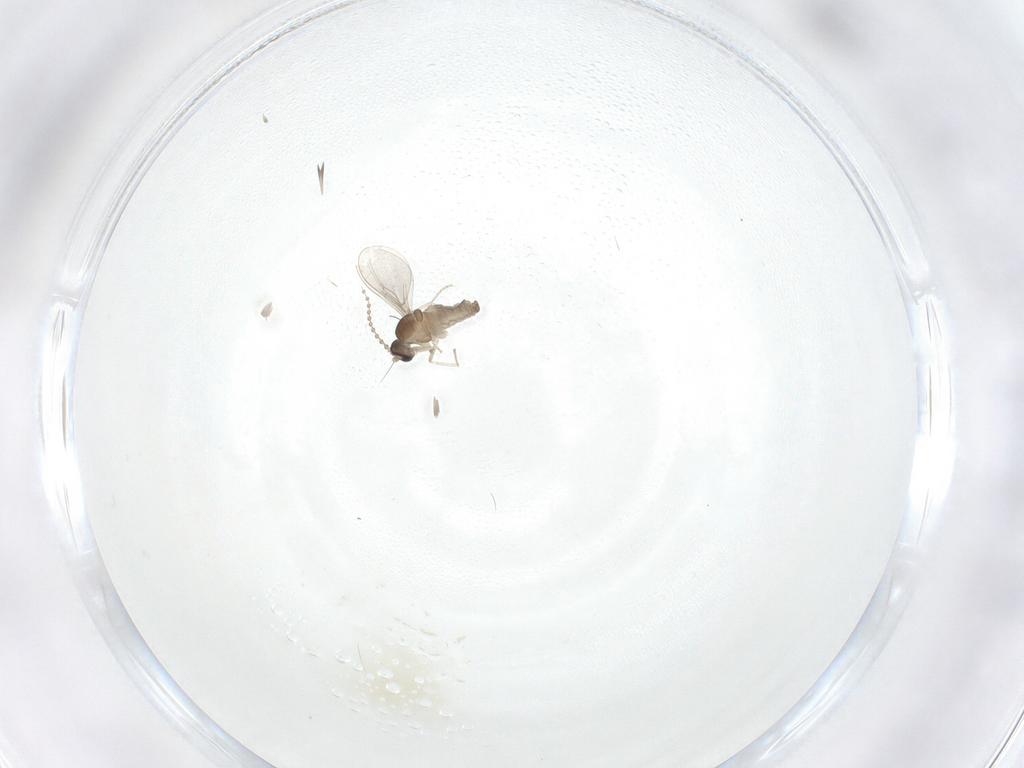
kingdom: Animalia
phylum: Arthropoda
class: Insecta
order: Diptera
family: Cecidomyiidae
